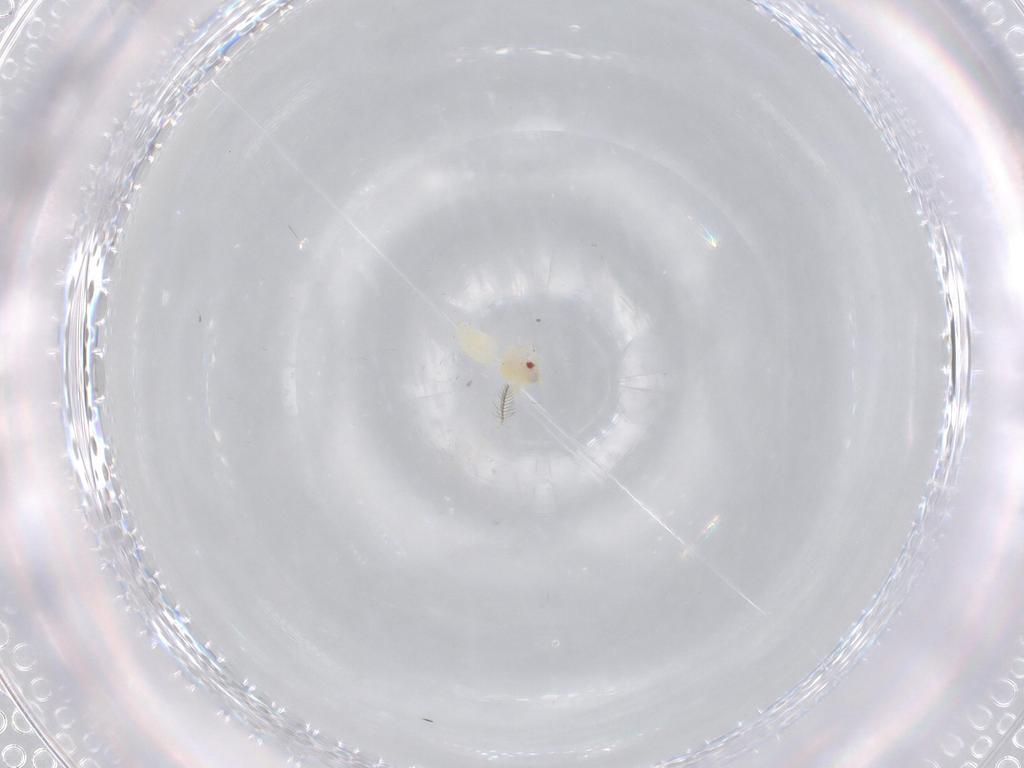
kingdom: Animalia
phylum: Arthropoda
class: Insecta
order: Hemiptera
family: Aleyrodidae
